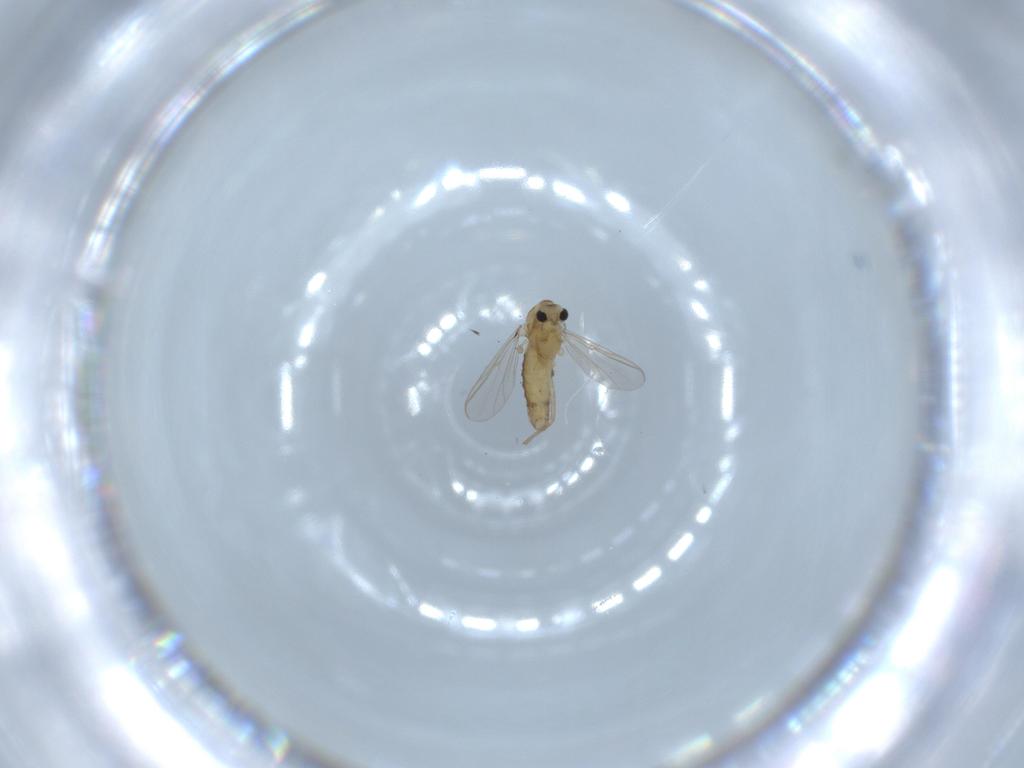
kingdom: Animalia
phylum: Arthropoda
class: Insecta
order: Diptera
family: Chironomidae
